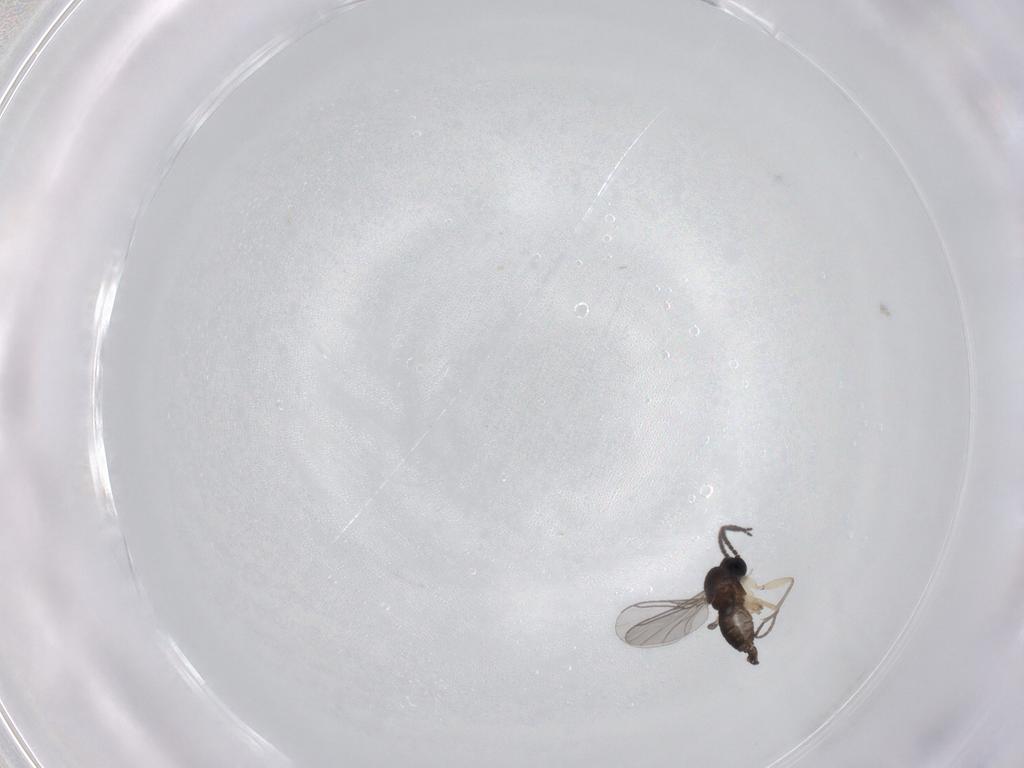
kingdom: Animalia
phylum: Arthropoda
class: Insecta
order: Diptera
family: Sciaridae
